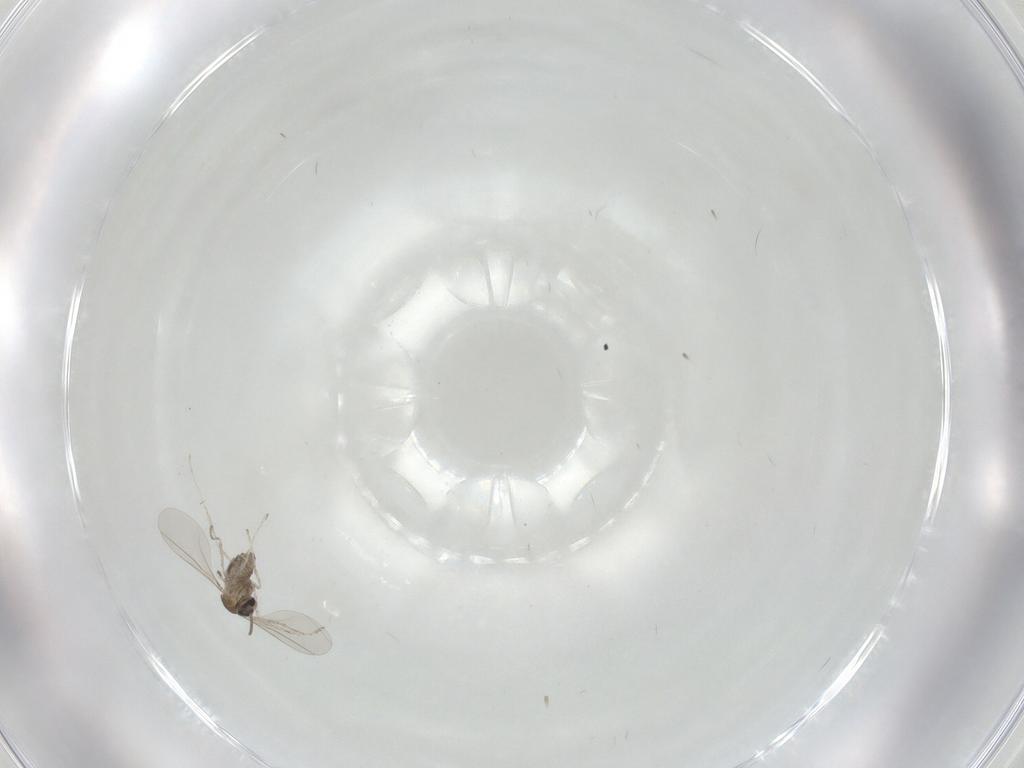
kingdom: Animalia
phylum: Arthropoda
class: Insecta
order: Diptera
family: Cecidomyiidae
